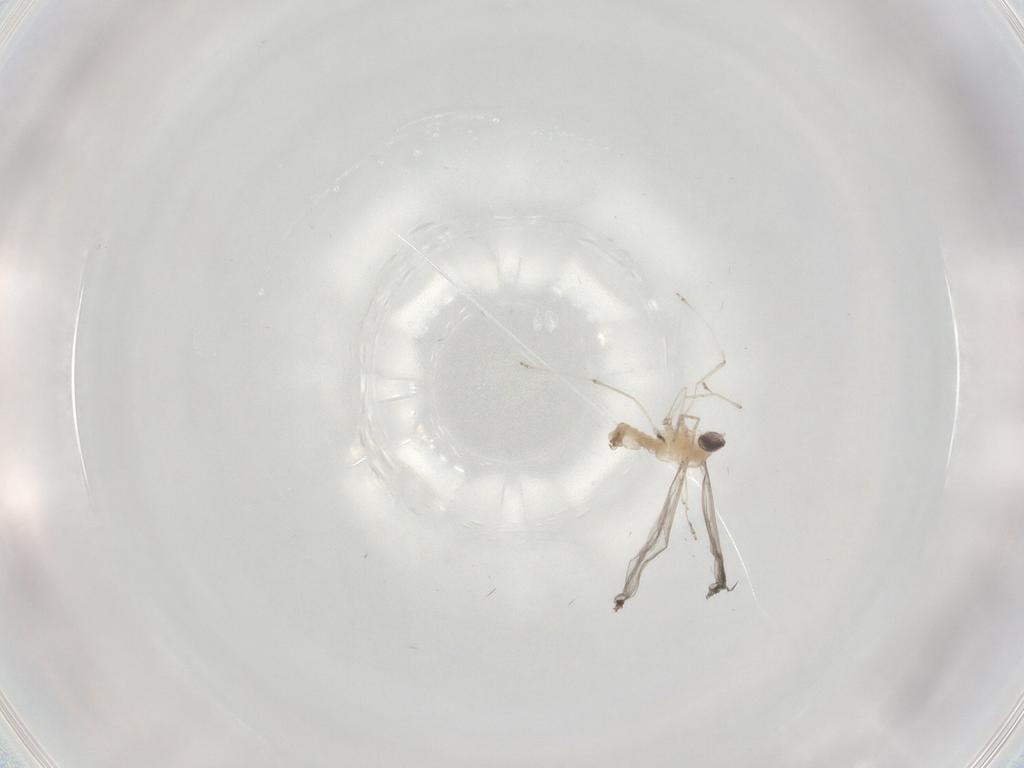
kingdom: Animalia
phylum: Arthropoda
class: Insecta
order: Diptera
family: Cecidomyiidae
